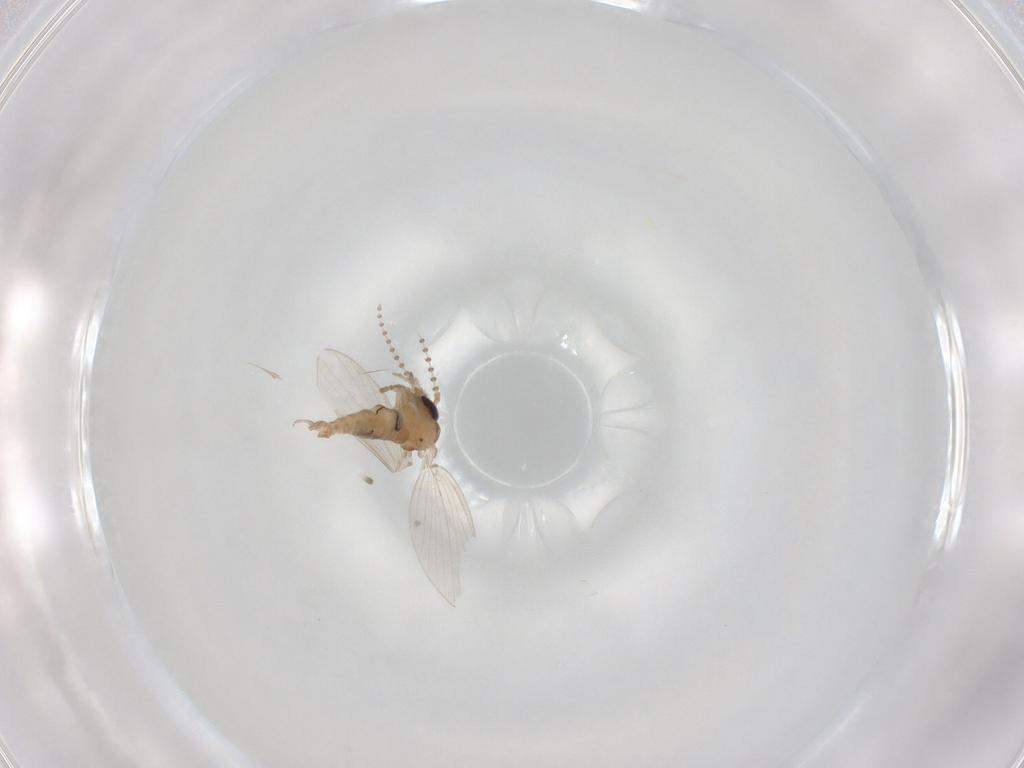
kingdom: Animalia
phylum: Arthropoda
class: Insecta
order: Diptera
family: Psychodidae
